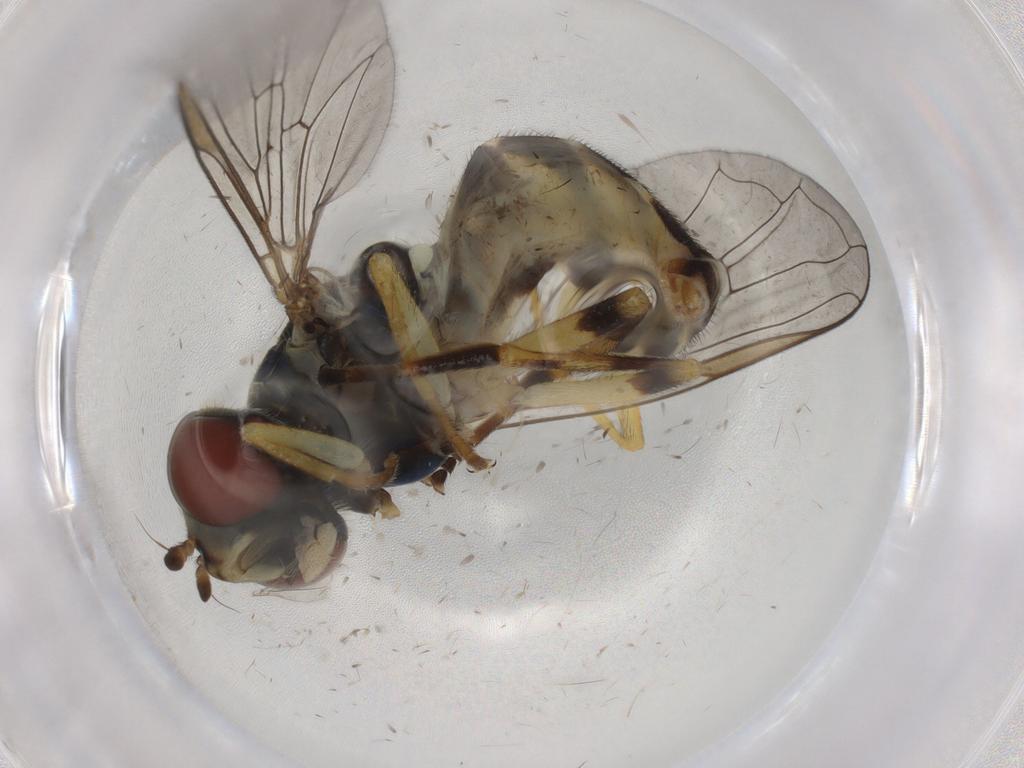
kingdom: Animalia
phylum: Arthropoda
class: Insecta
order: Diptera
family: Syrphidae
